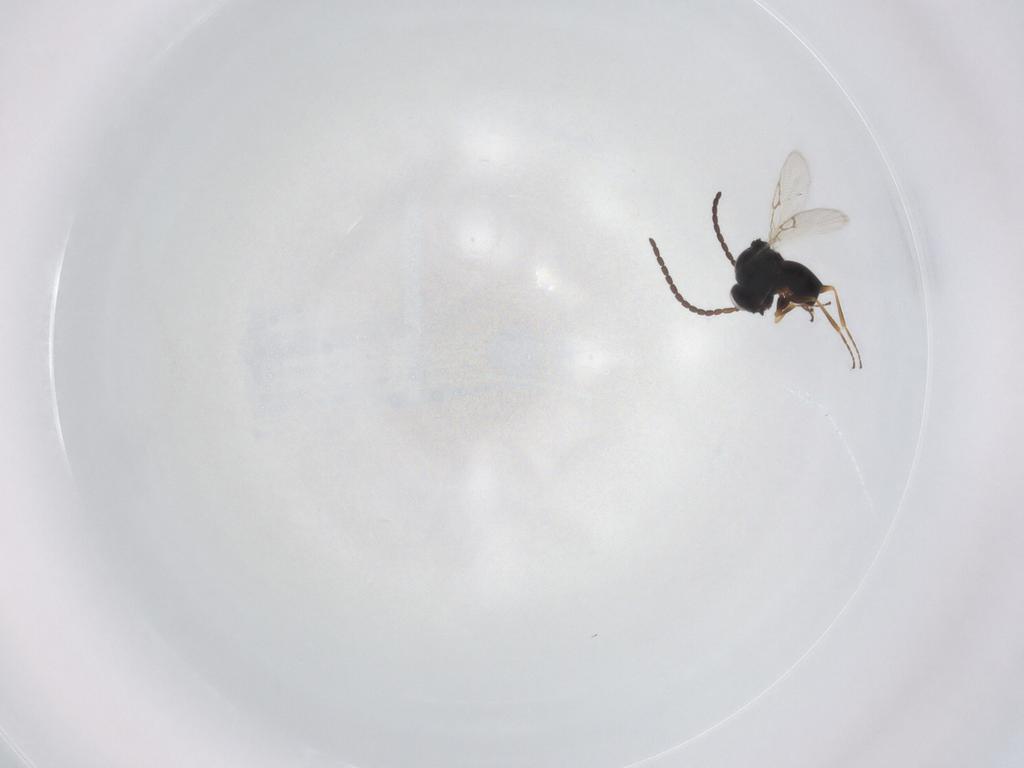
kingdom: Animalia
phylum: Arthropoda
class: Insecta
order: Hymenoptera
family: Figitidae
